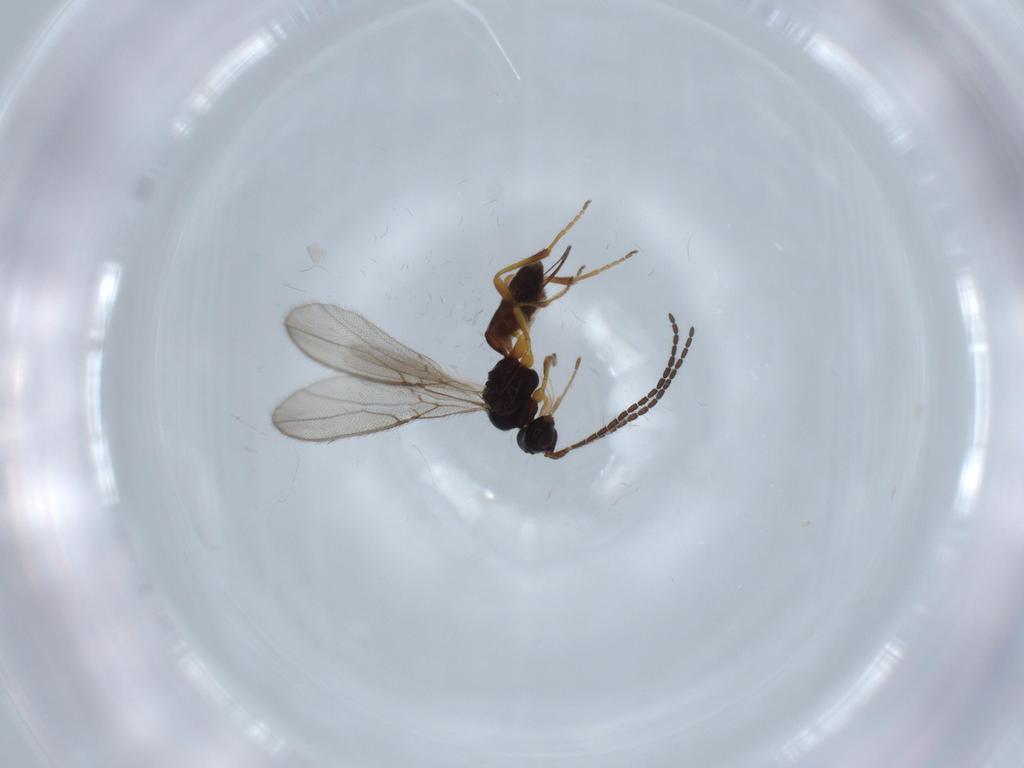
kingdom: Animalia
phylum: Arthropoda
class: Insecta
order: Hymenoptera
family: Braconidae
